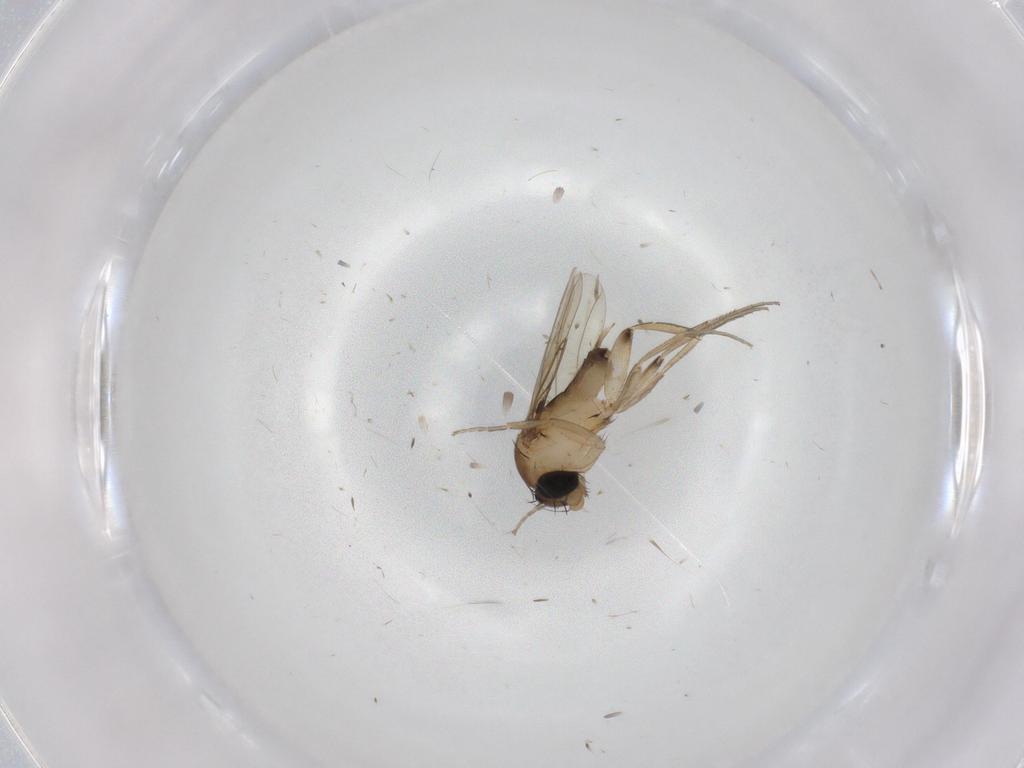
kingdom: Animalia
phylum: Arthropoda
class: Insecta
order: Diptera
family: Phoridae
